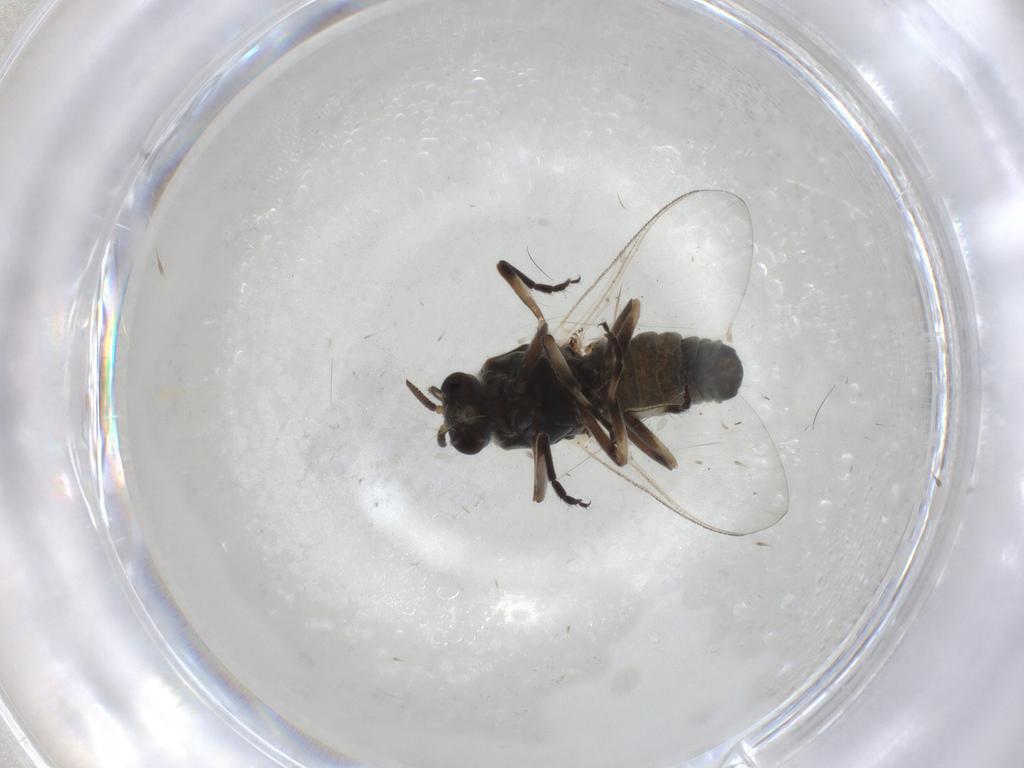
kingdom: Animalia
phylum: Arthropoda
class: Insecta
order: Diptera
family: Simuliidae
